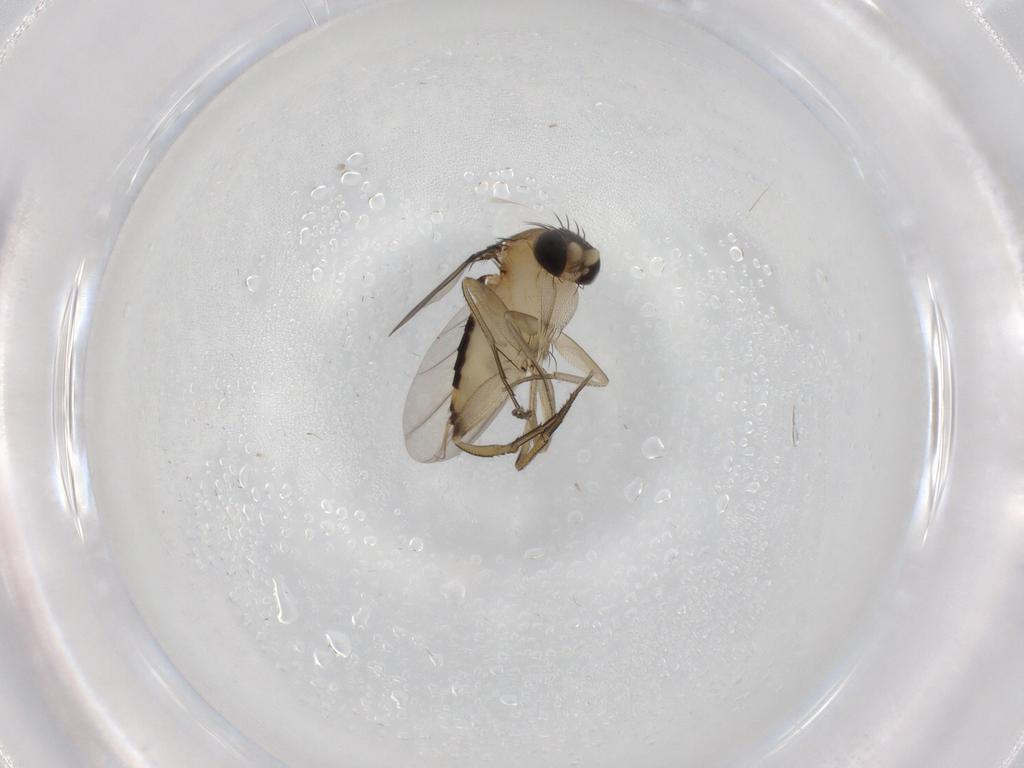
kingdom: Animalia
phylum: Arthropoda
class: Insecta
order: Diptera
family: Phoridae
